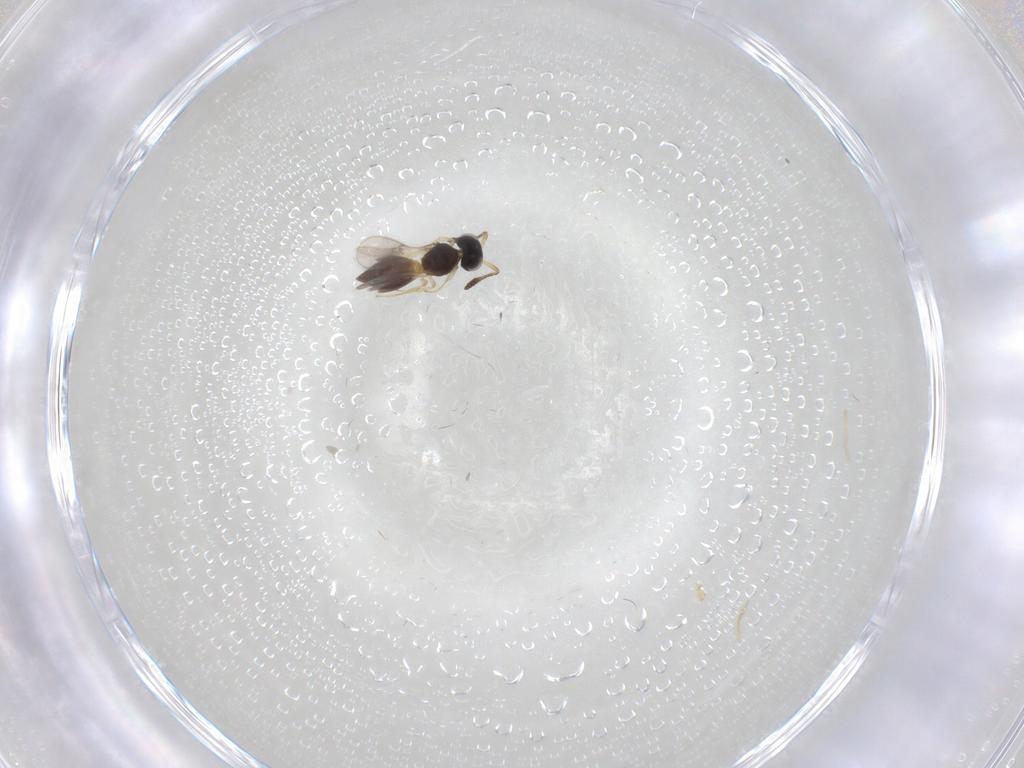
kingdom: Animalia
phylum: Arthropoda
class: Insecta
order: Hymenoptera
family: Scelionidae
